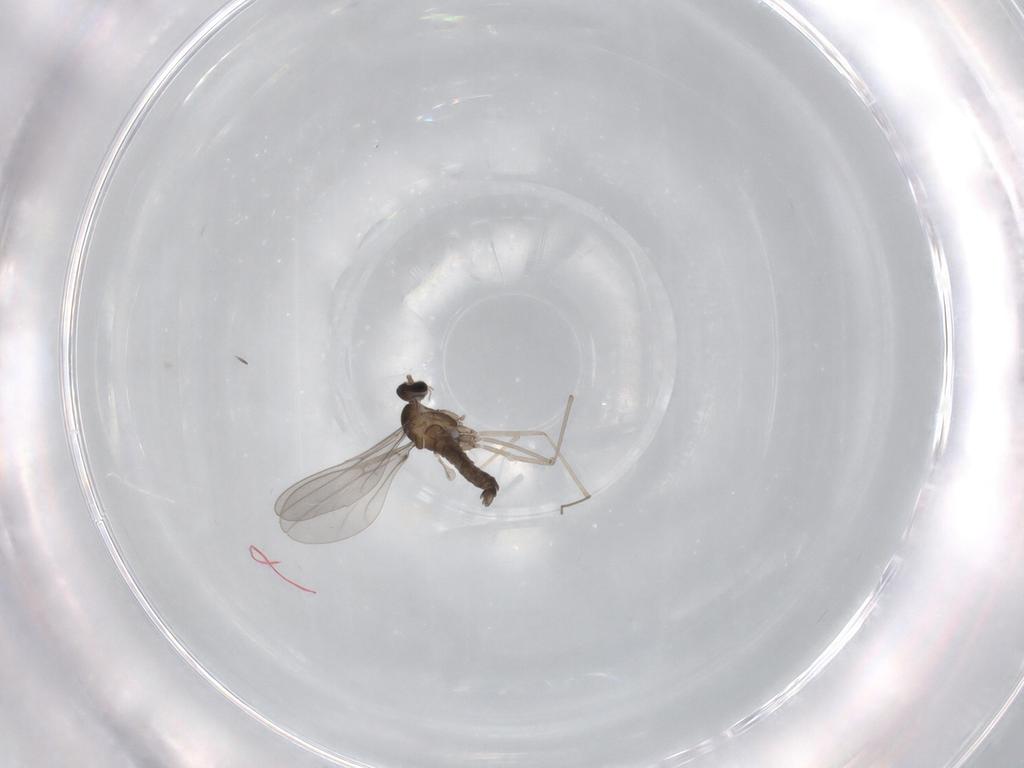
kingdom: Animalia
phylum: Arthropoda
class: Insecta
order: Diptera
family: Cecidomyiidae
